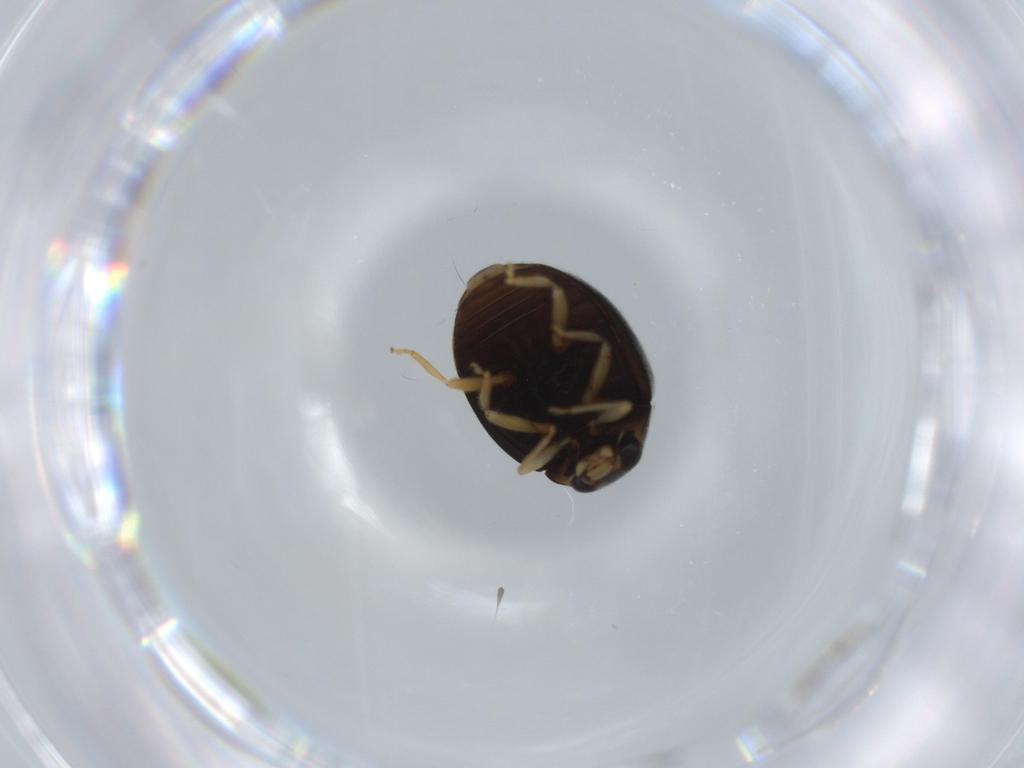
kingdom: Animalia
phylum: Arthropoda
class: Insecta
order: Coleoptera
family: Coccinellidae
